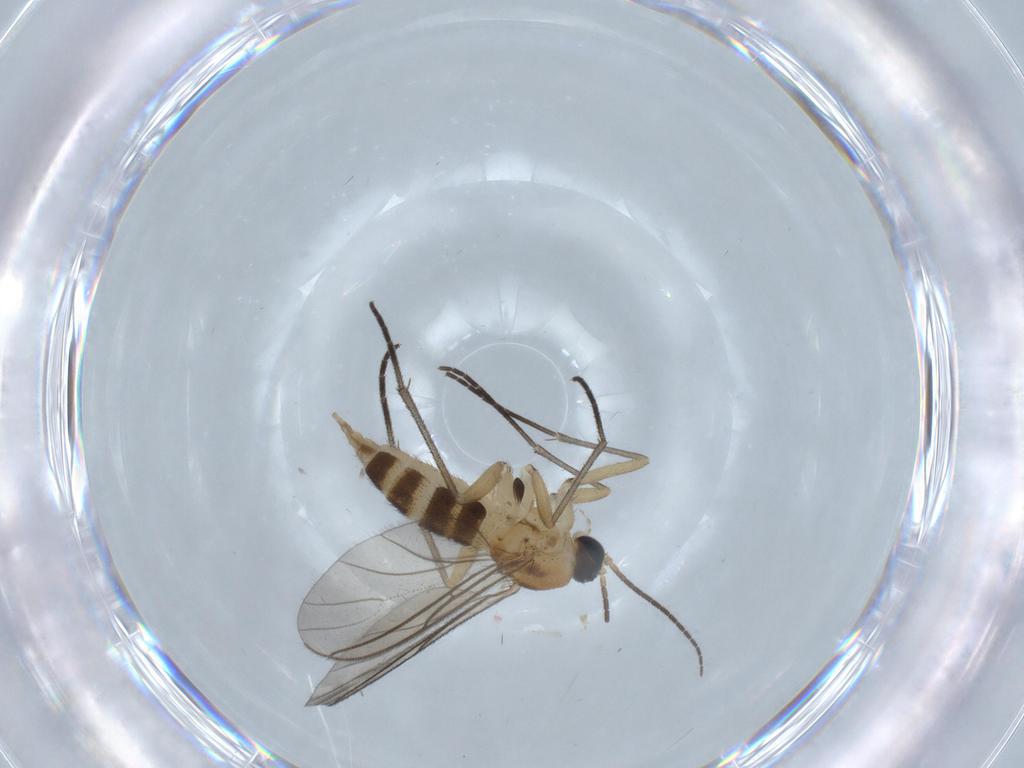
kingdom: Animalia
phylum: Arthropoda
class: Insecta
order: Diptera
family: Sciaridae
